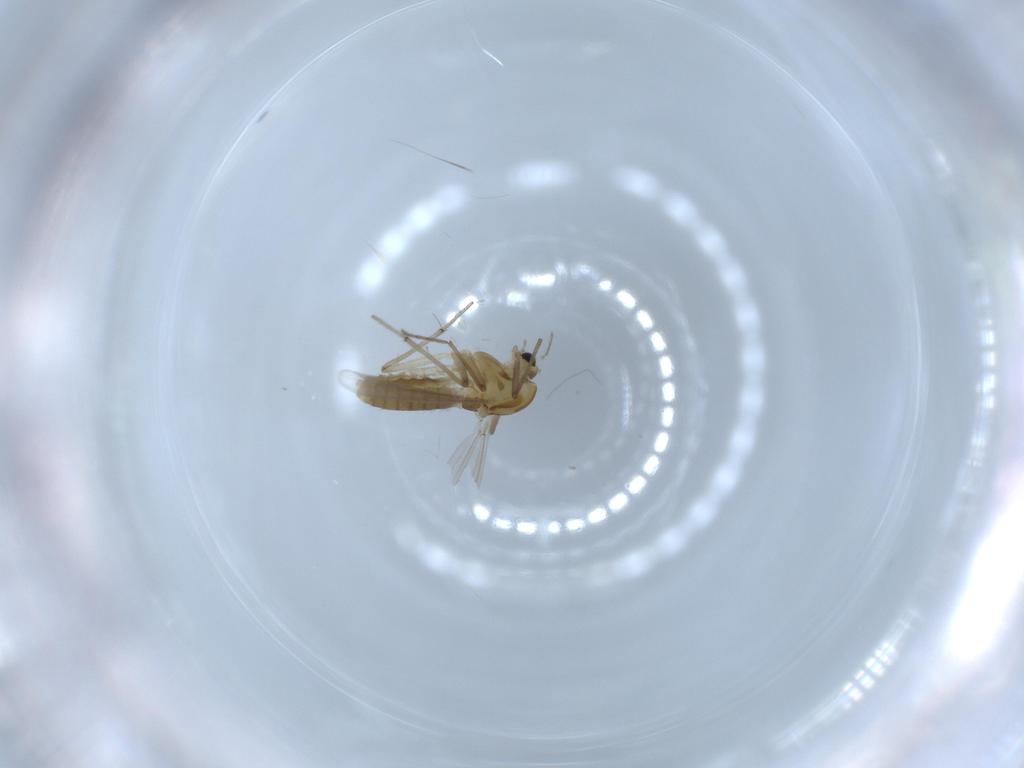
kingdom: Animalia
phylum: Arthropoda
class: Insecta
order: Diptera
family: Chironomidae
